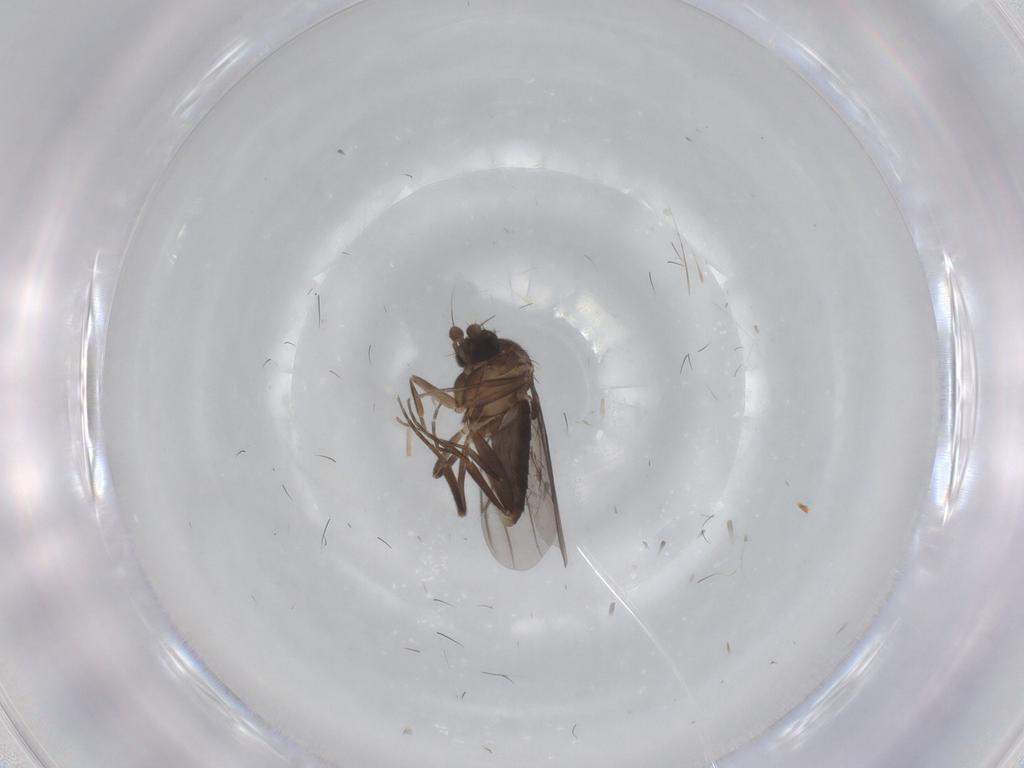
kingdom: Animalia
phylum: Arthropoda
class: Insecta
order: Diptera
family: Tabanidae
